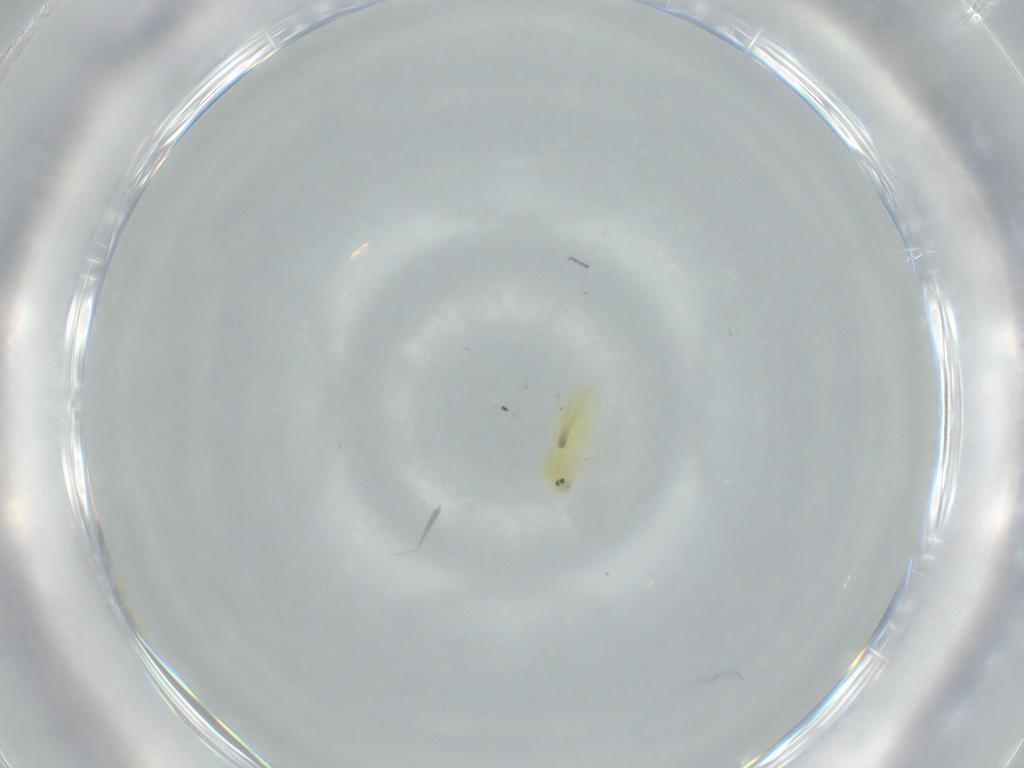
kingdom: Animalia
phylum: Arthropoda
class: Insecta
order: Hemiptera
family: Aleyrodidae
